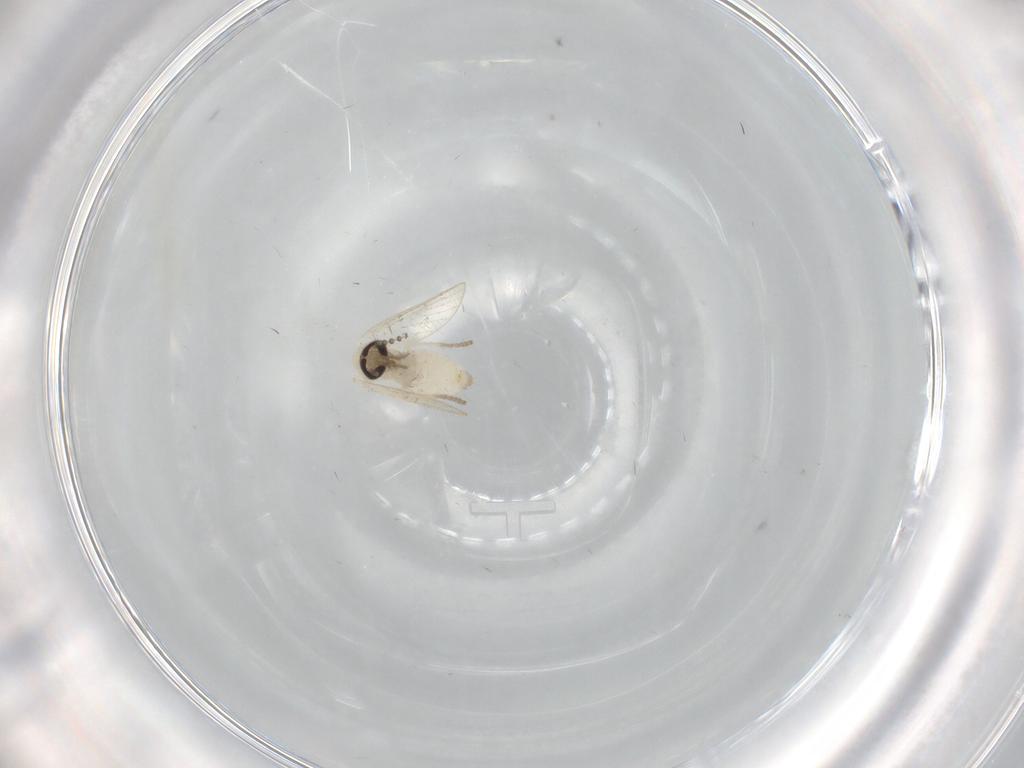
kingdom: Animalia
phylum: Arthropoda
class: Insecta
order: Diptera
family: Psychodidae
